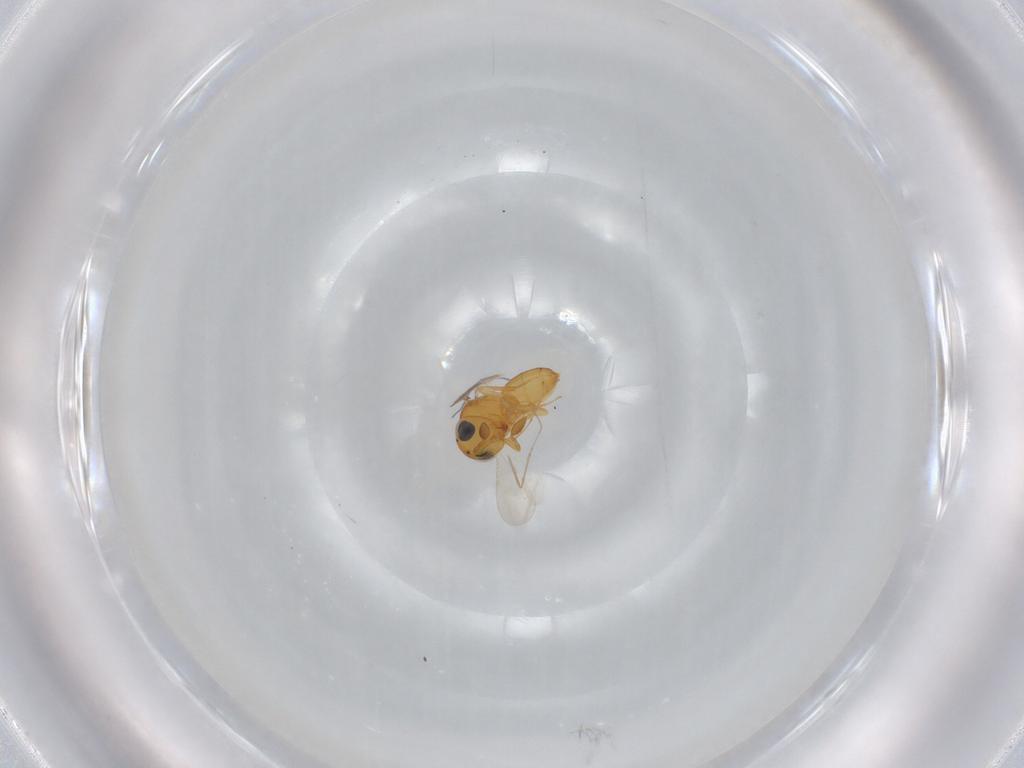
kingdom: Animalia
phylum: Arthropoda
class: Insecta
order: Hymenoptera
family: Scelionidae
